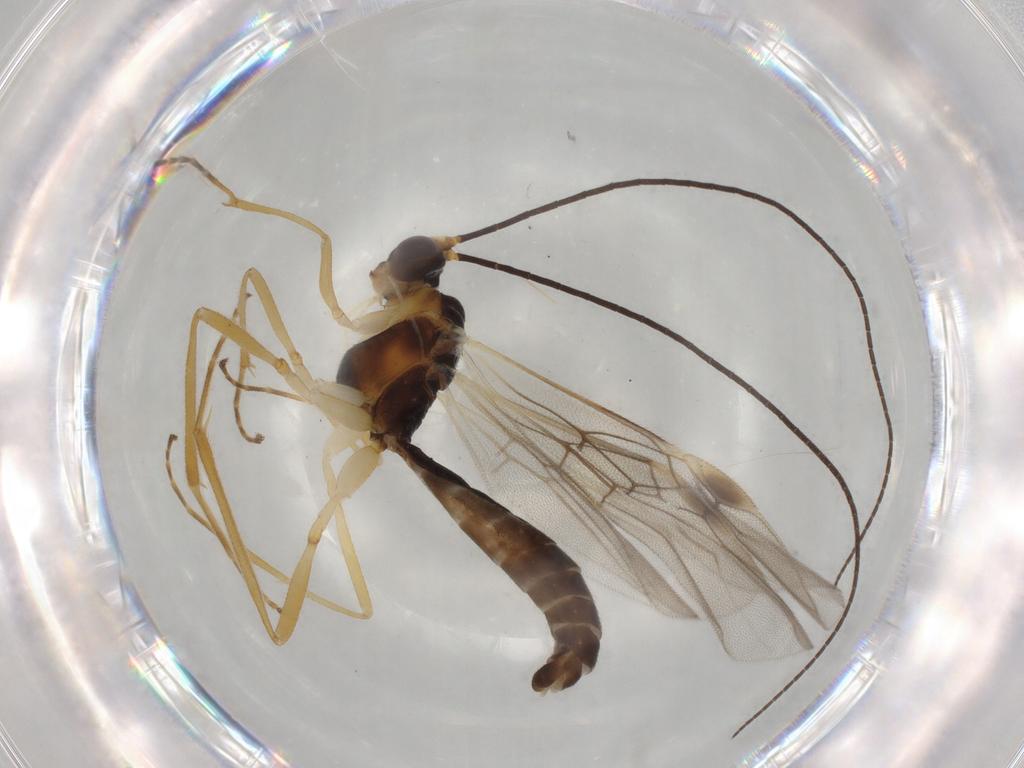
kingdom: Animalia
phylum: Arthropoda
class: Insecta
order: Hymenoptera
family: Braconidae
